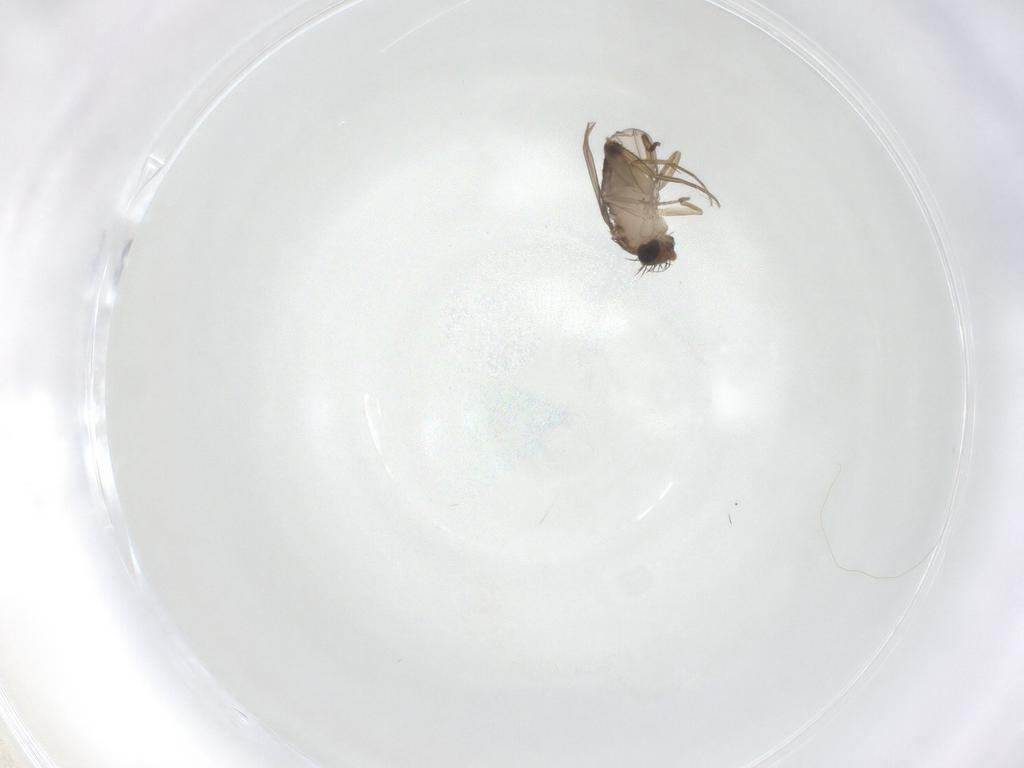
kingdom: Animalia
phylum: Arthropoda
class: Insecta
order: Diptera
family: Phoridae
